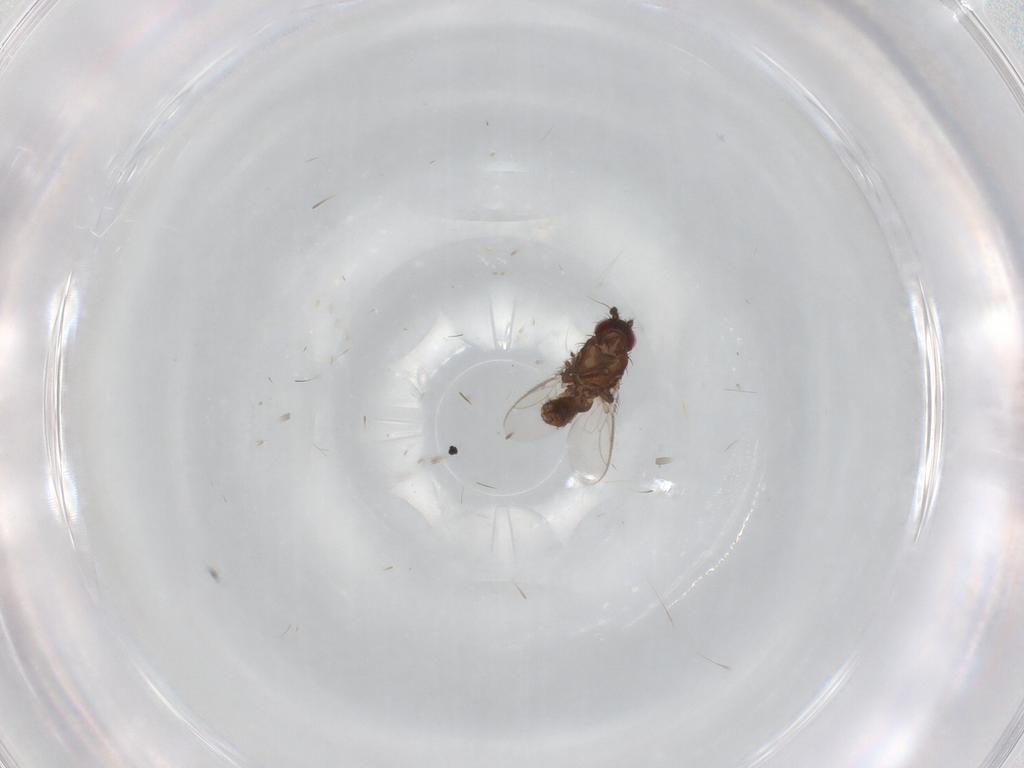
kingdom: Animalia
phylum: Arthropoda
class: Insecta
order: Diptera
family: Sphaeroceridae
